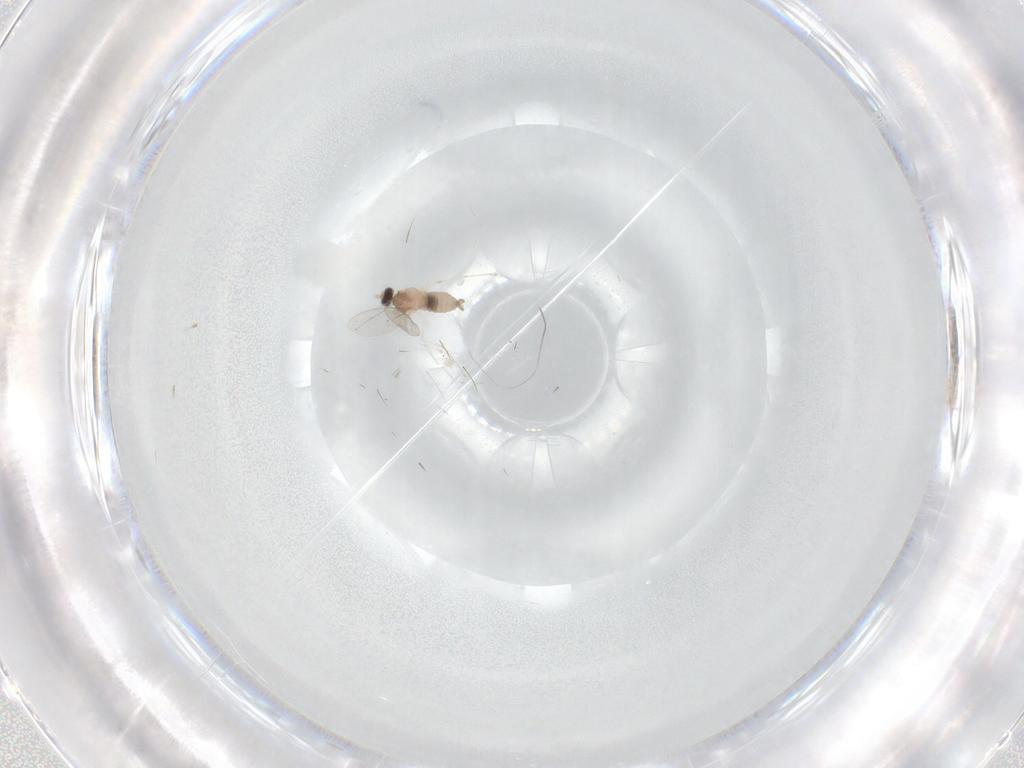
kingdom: Animalia
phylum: Arthropoda
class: Insecta
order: Diptera
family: Cecidomyiidae
